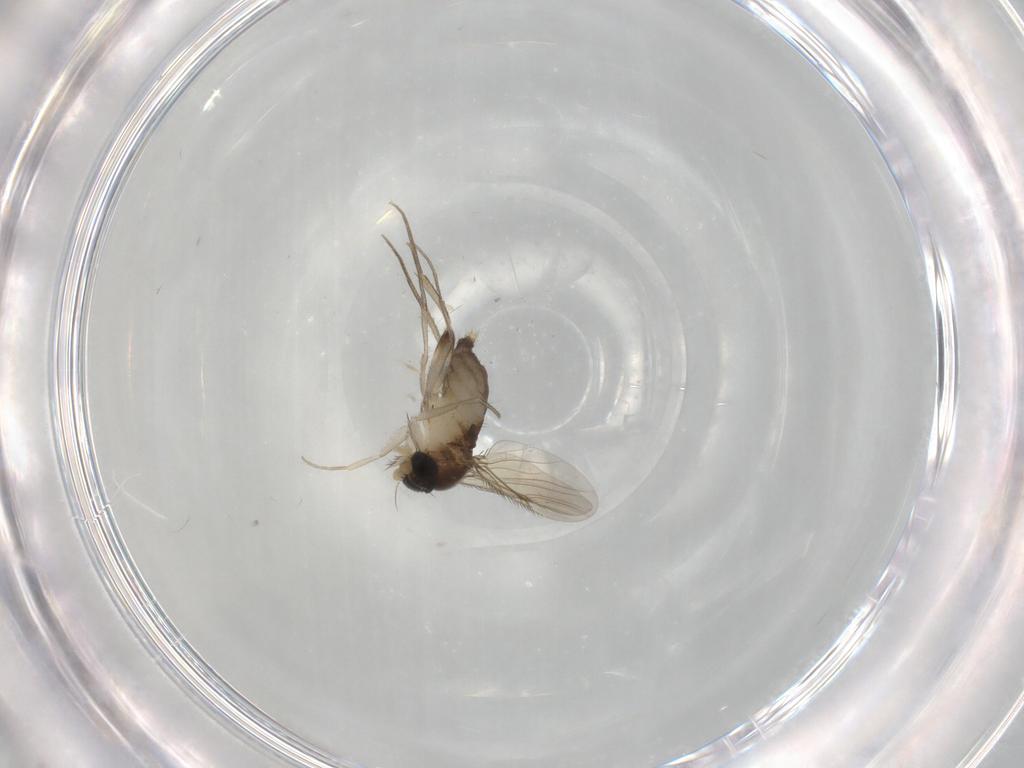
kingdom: Animalia
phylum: Arthropoda
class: Insecta
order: Diptera
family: Phoridae
